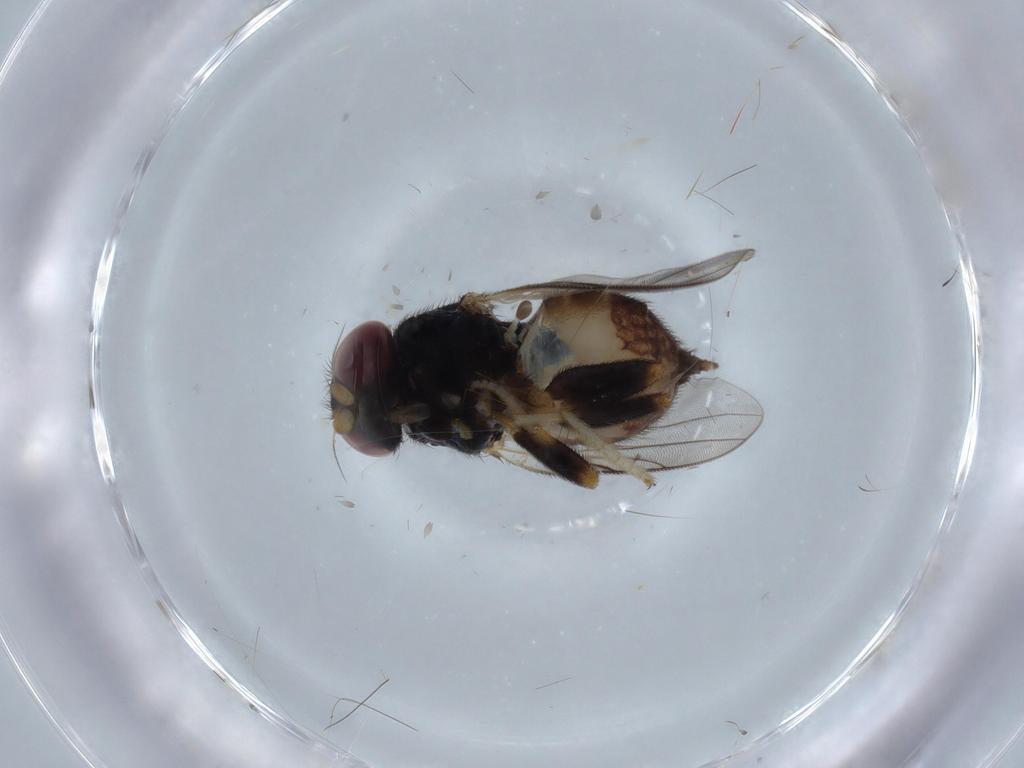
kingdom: Animalia
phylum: Arthropoda
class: Insecta
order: Diptera
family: Chloropidae
